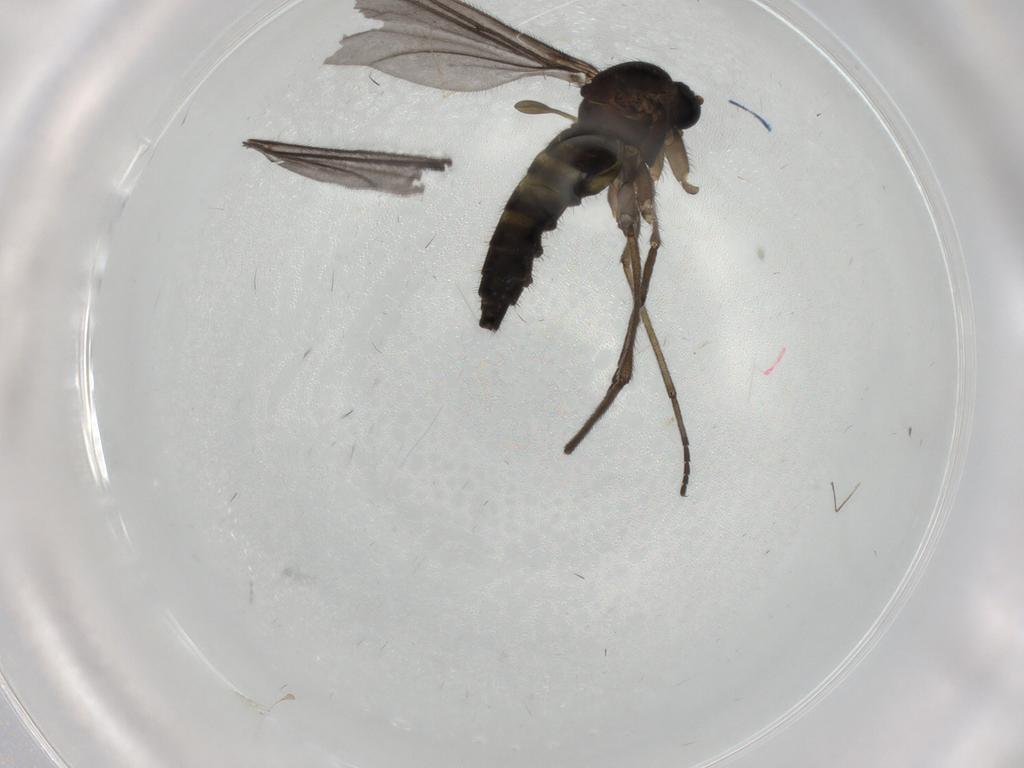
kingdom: Animalia
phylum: Arthropoda
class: Insecta
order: Diptera
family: Sciaridae
